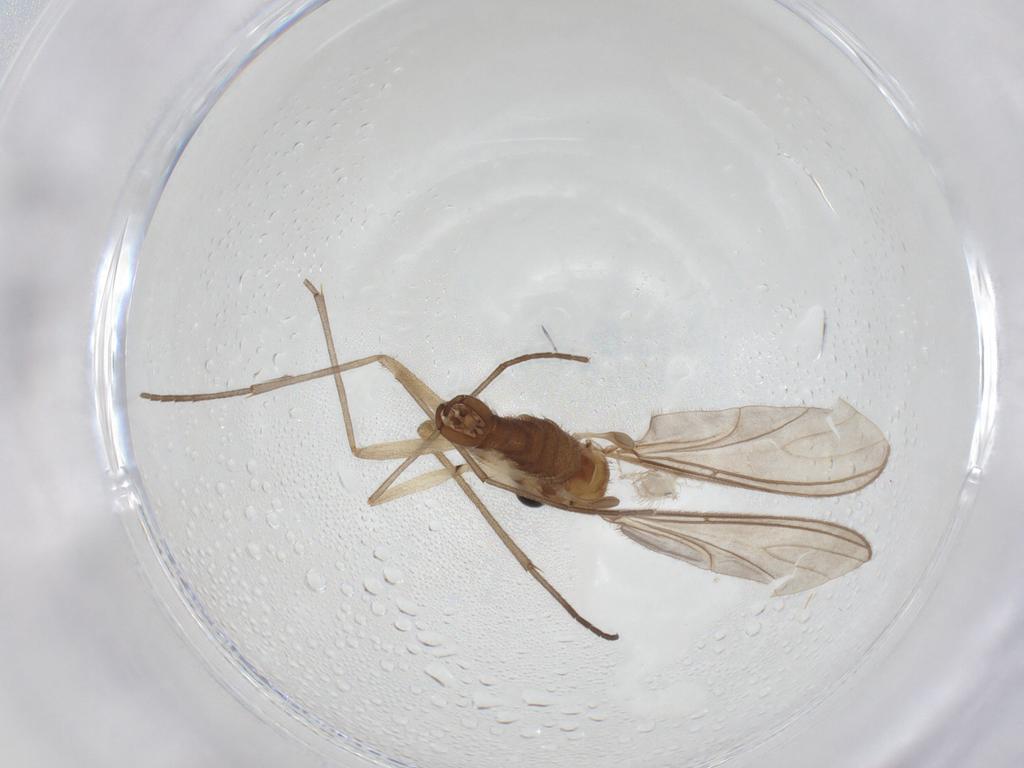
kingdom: Animalia
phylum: Arthropoda
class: Insecta
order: Diptera
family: Sciaridae
